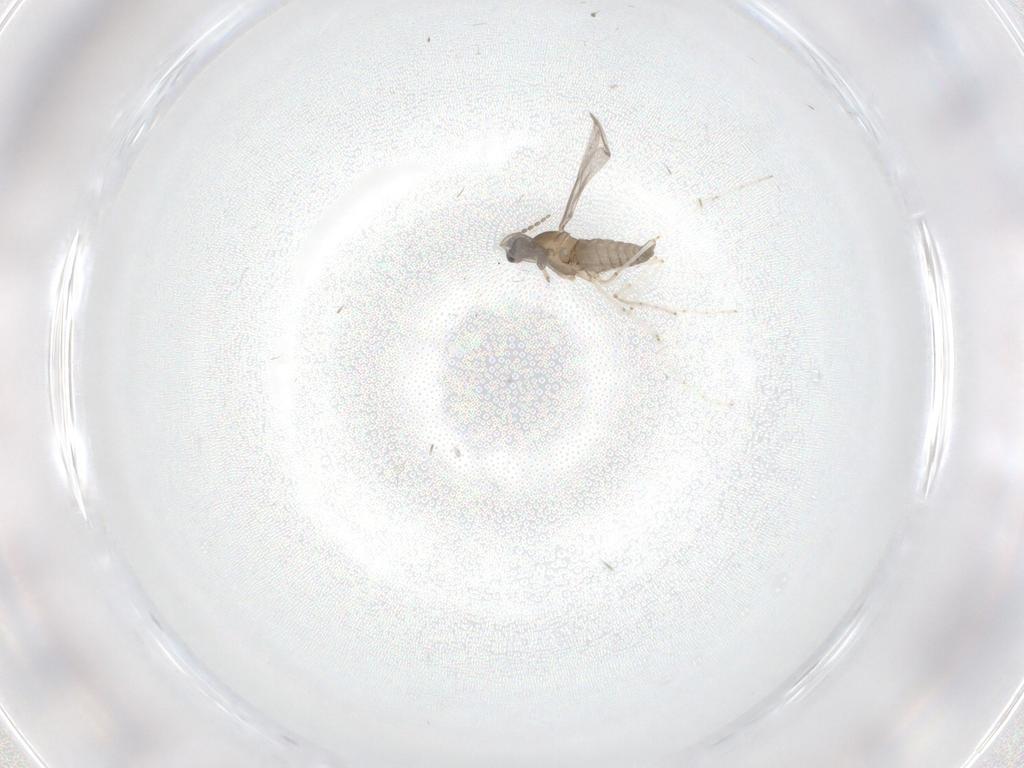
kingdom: Animalia
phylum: Arthropoda
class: Insecta
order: Diptera
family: Cecidomyiidae
